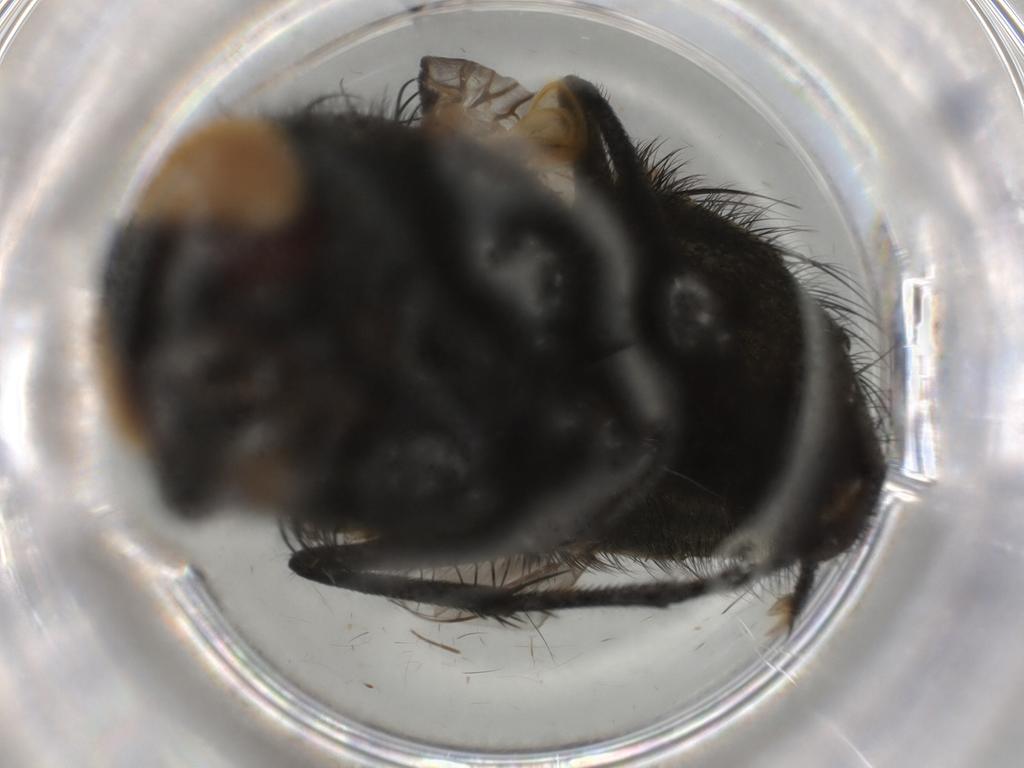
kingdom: Animalia
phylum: Arthropoda
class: Insecta
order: Diptera
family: Muscidae
